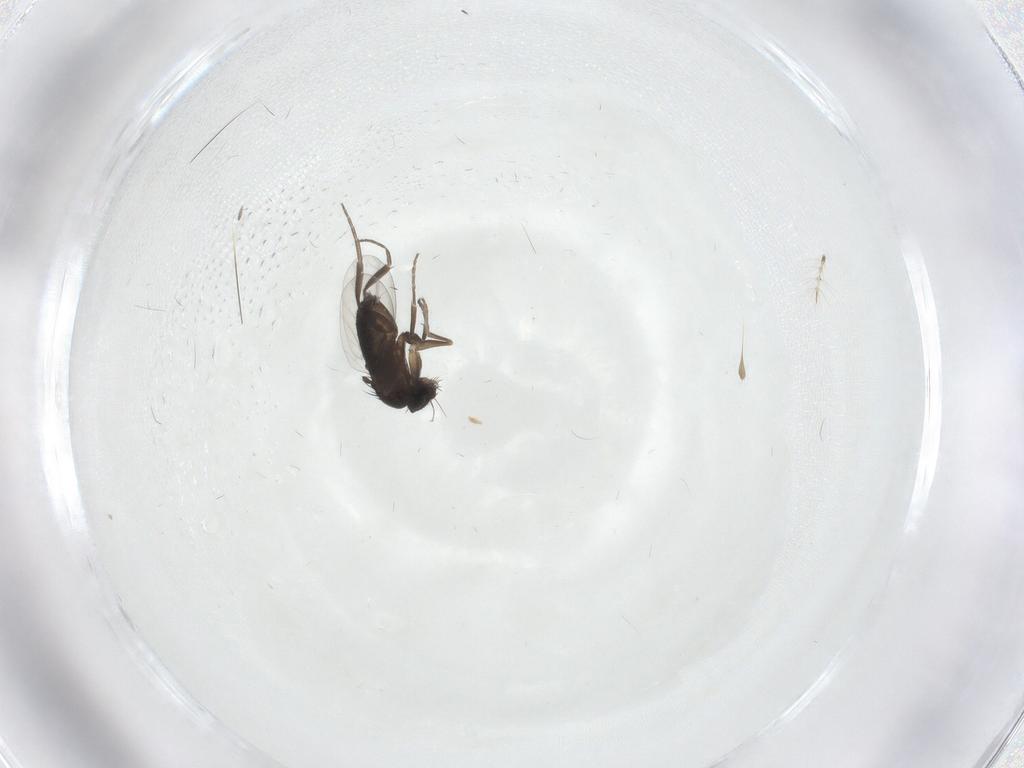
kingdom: Animalia
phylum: Arthropoda
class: Insecta
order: Diptera
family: Phoridae
